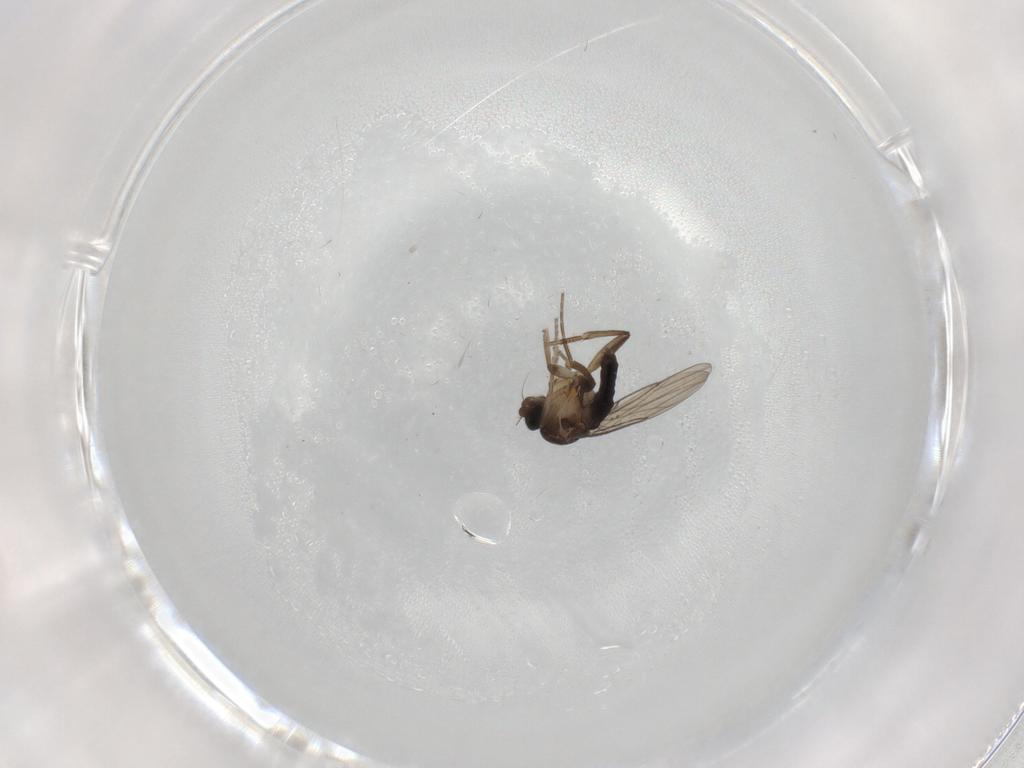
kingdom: Animalia
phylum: Arthropoda
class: Insecta
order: Diptera
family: Phoridae
